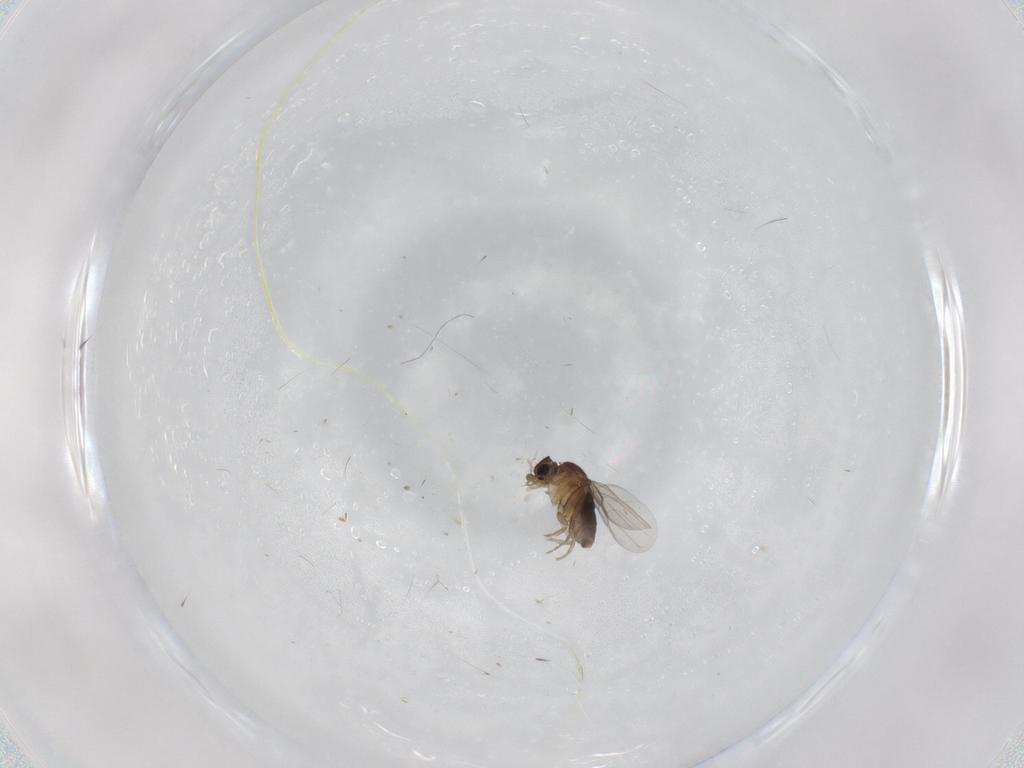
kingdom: Animalia
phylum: Arthropoda
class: Insecta
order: Diptera
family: Phoridae
